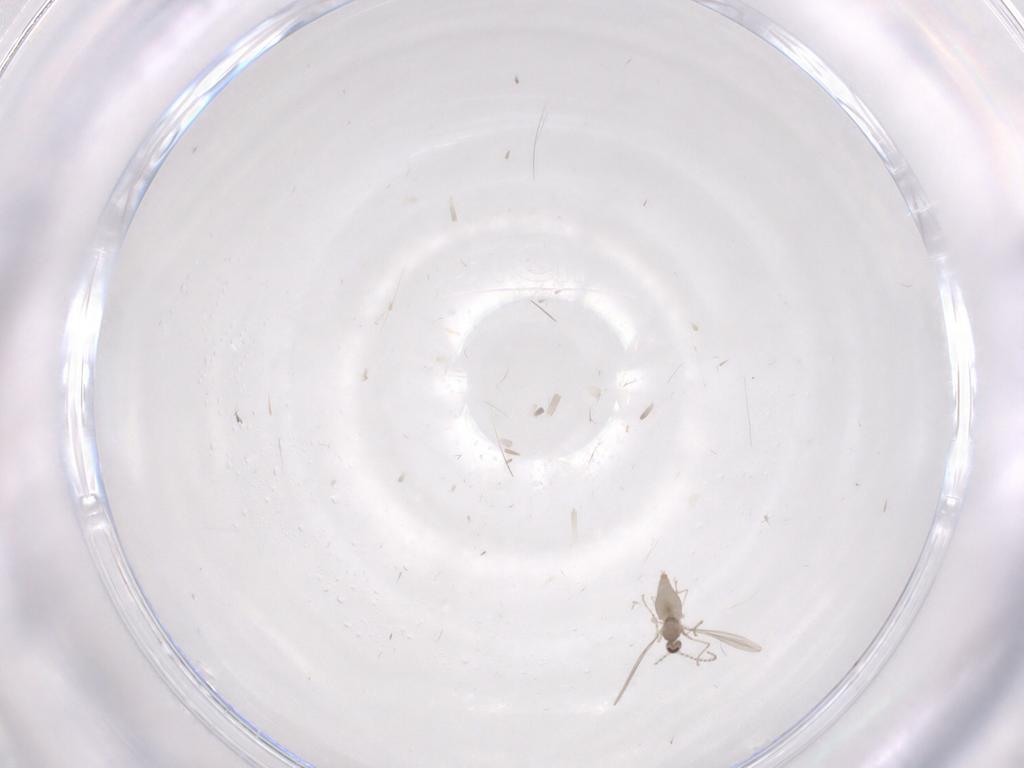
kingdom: Animalia
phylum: Arthropoda
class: Insecta
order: Diptera
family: Cecidomyiidae
